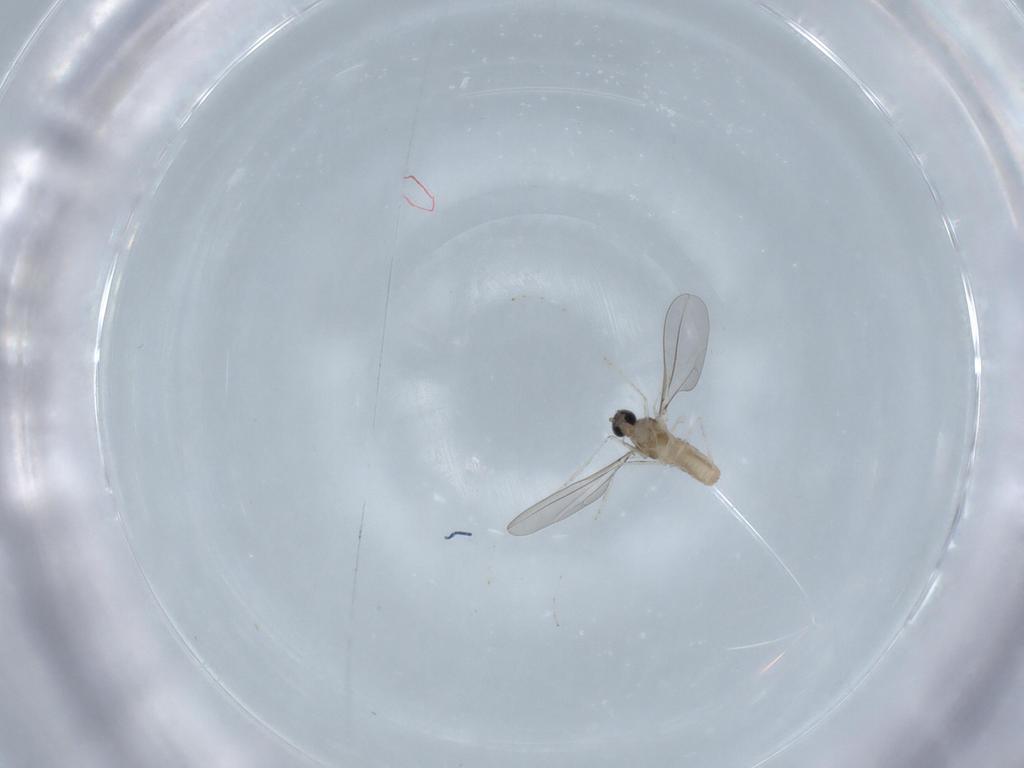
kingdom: Animalia
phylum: Arthropoda
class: Insecta
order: Diptera
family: Cecidomyiidae
